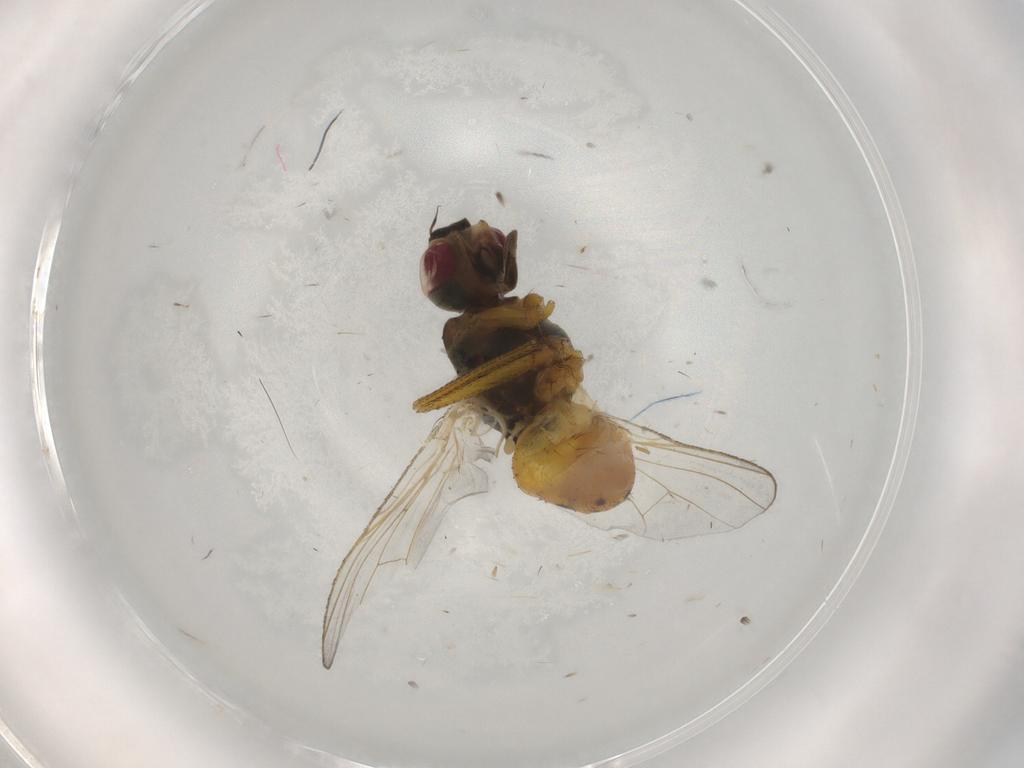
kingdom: Animalia
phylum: Arthropoda
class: Insecta
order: Diptera
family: Muscidae
